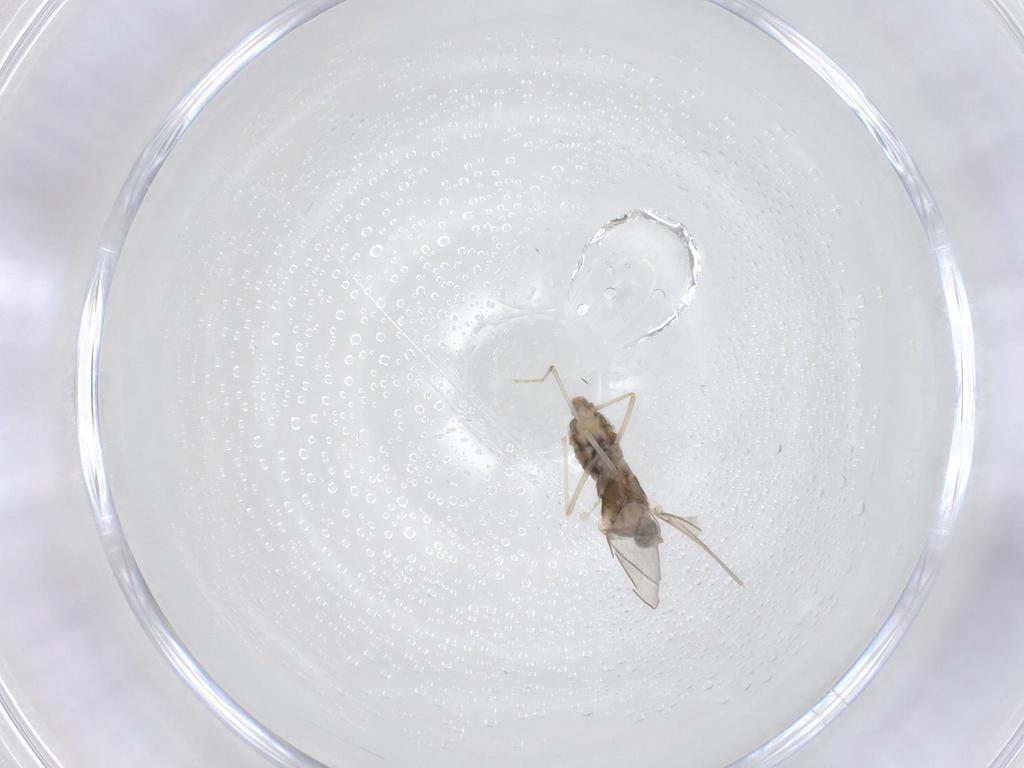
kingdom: Animalia
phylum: Arthropoda
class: Insecta
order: Diptera
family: Cecidomyiidae
